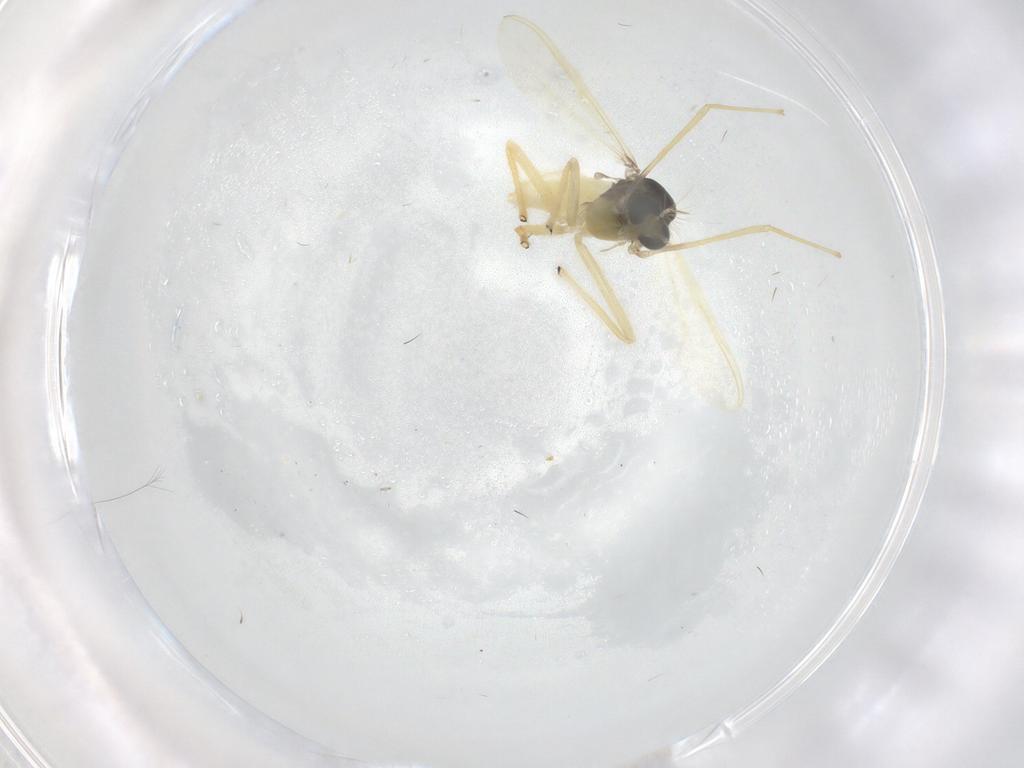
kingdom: Animalia
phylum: Arthropoda
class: Insecta
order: Diptera
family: Chironomidae
